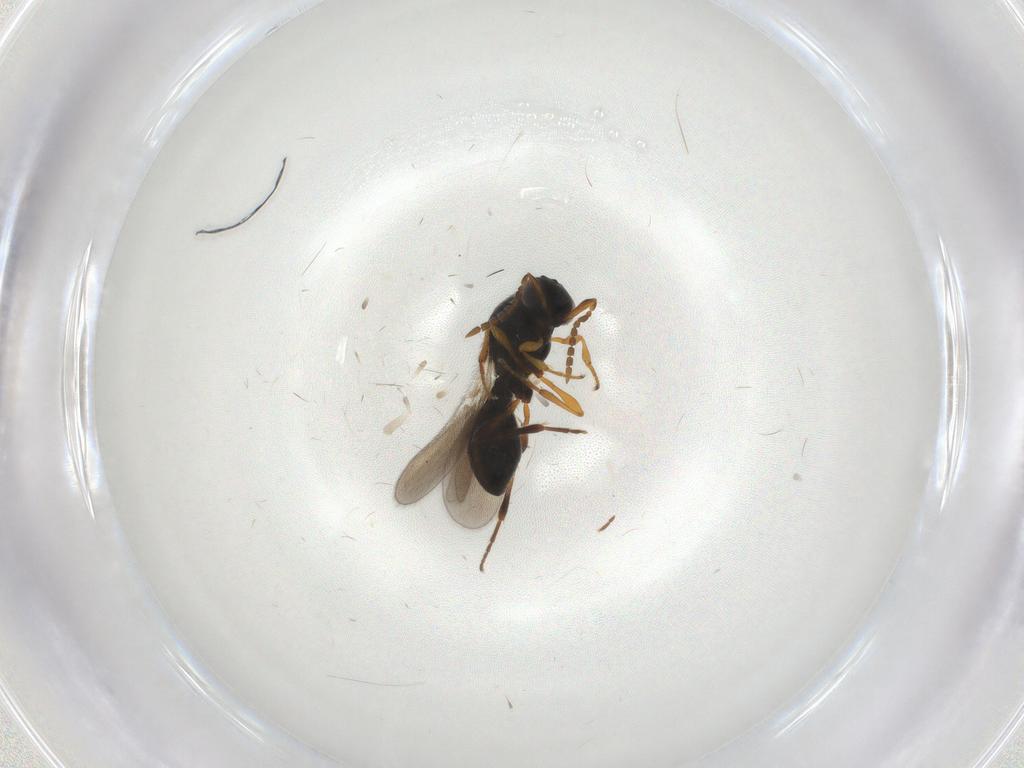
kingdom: Animalia
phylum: Arthropoda
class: Insecta
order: Hymenoptera
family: Platygastridae
